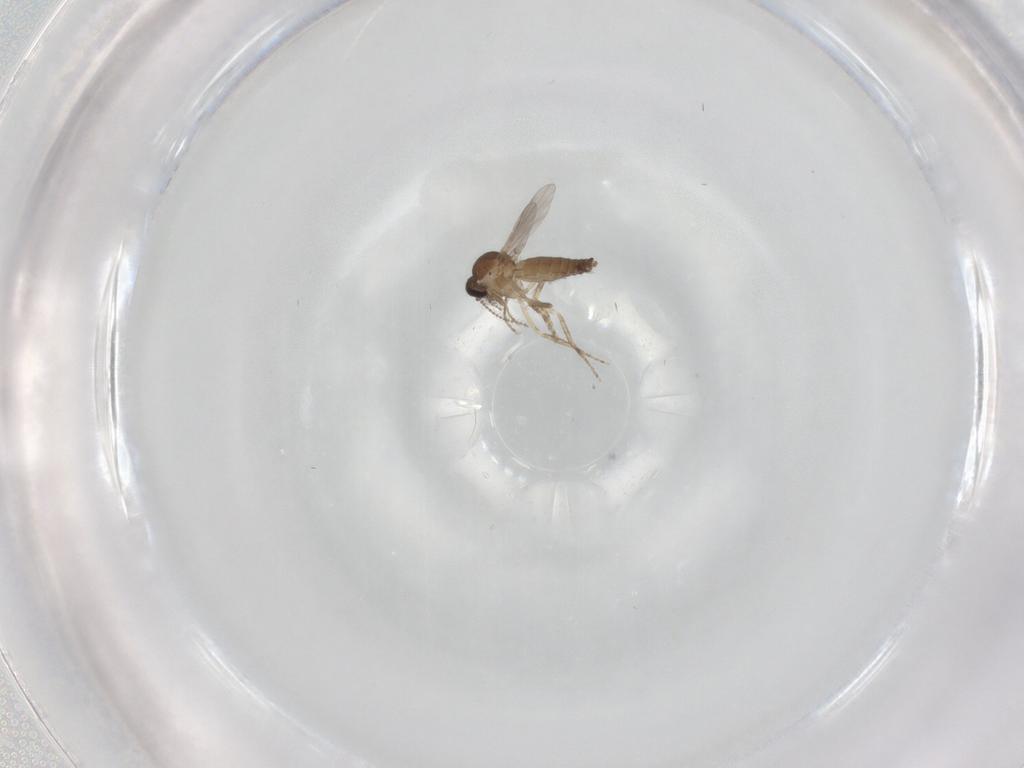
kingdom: Animalia
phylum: Arthropoda
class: Insecta
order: Diptera
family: Ceratopogonidae
